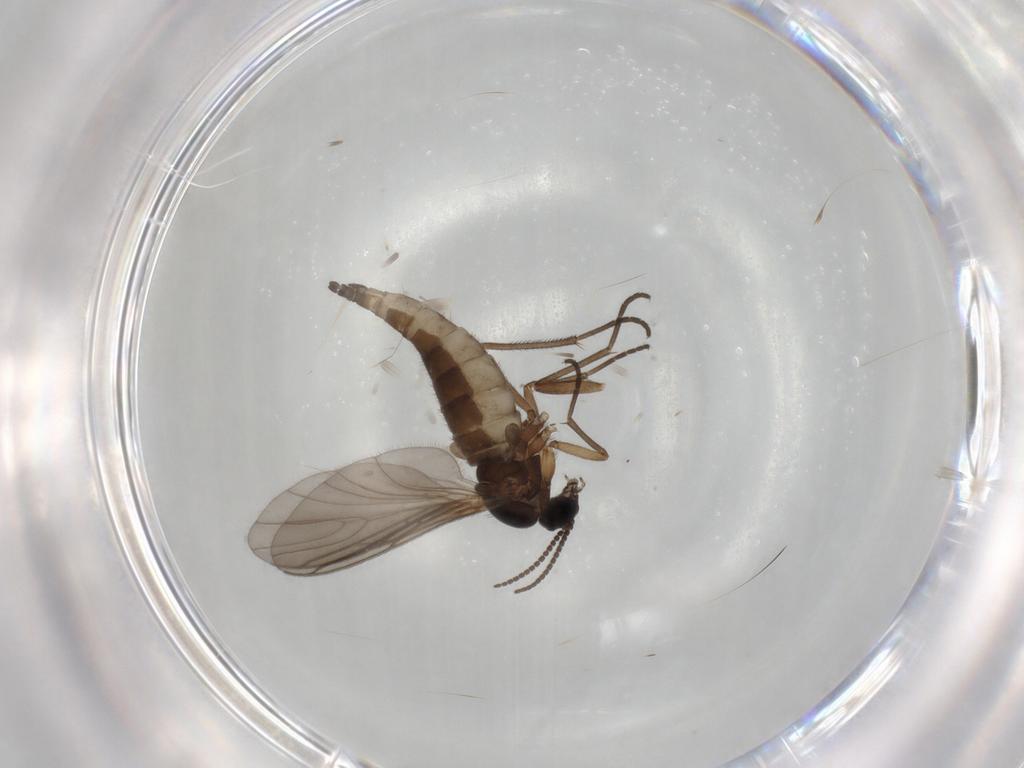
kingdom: Animalia
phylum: Arthropoda
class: Insecta
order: Diptera
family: Sciaridae
